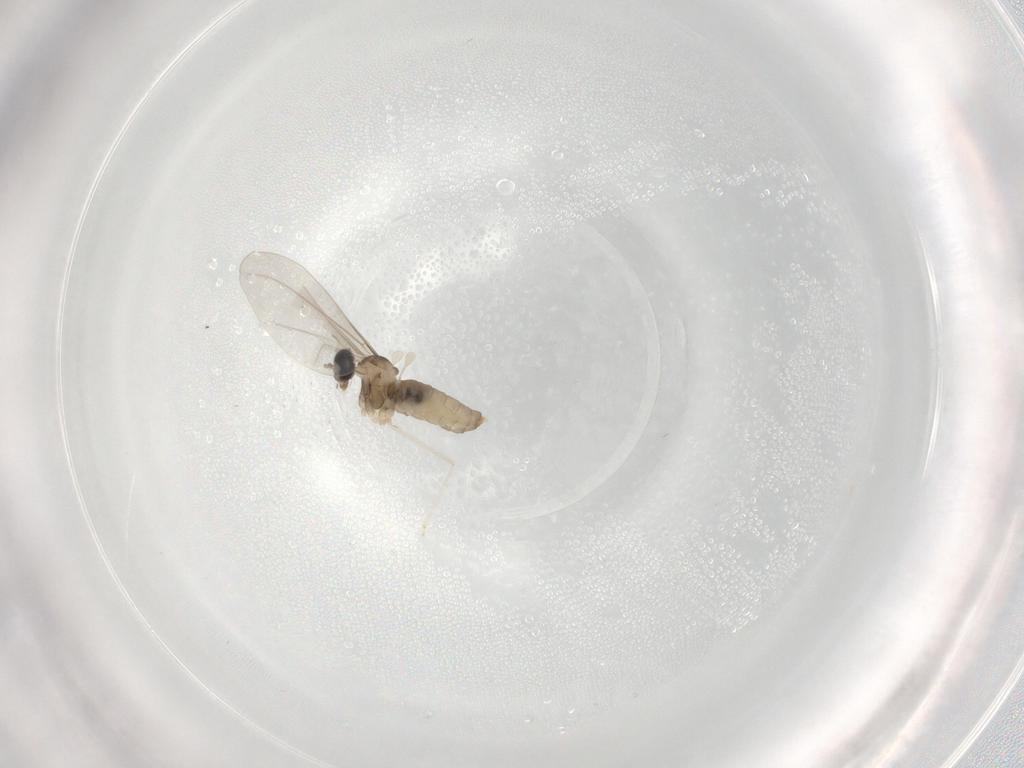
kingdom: Animalia
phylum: Arthropoda
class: Insecta
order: Diptera
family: Cecidomyiidae
